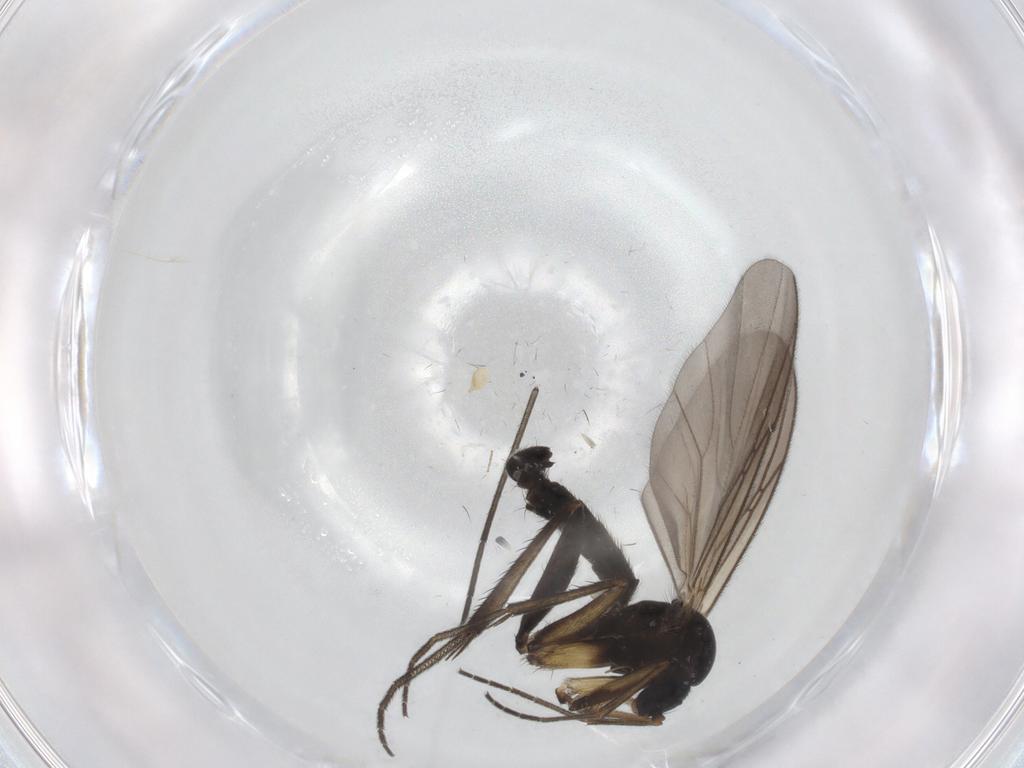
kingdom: Animalia
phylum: Arthropoda
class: Insecta
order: Diptera
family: Mycetophilidae
